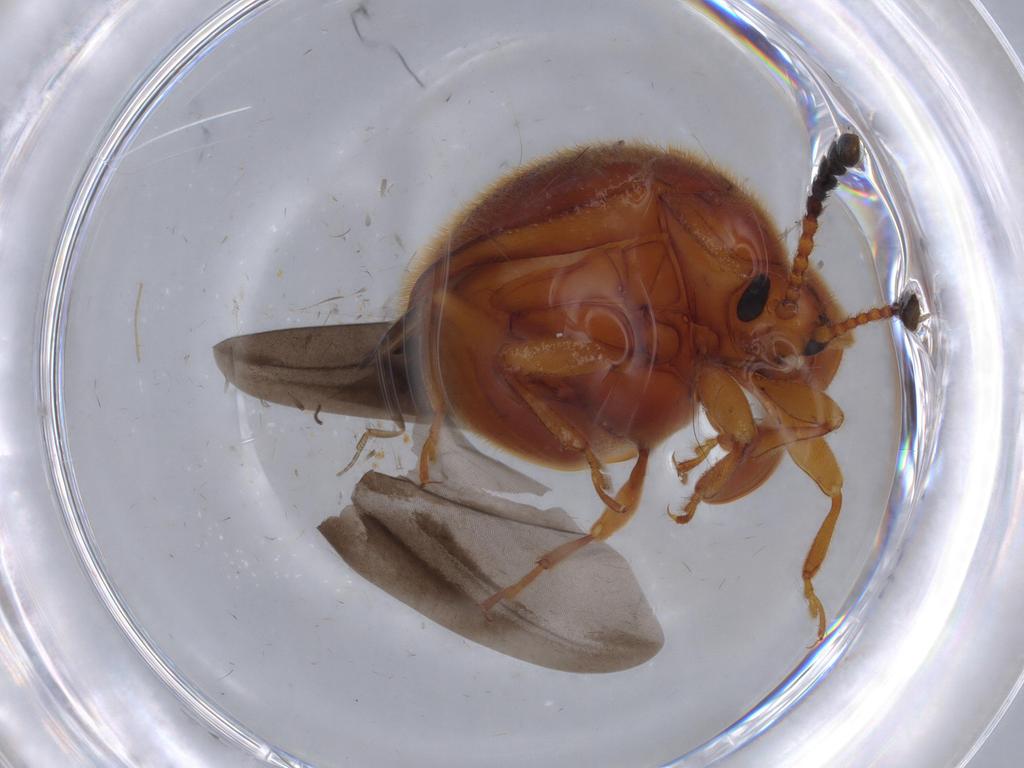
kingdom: Animalia
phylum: Arthropoda
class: Insecta
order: Coleoptera
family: Endomychidae
